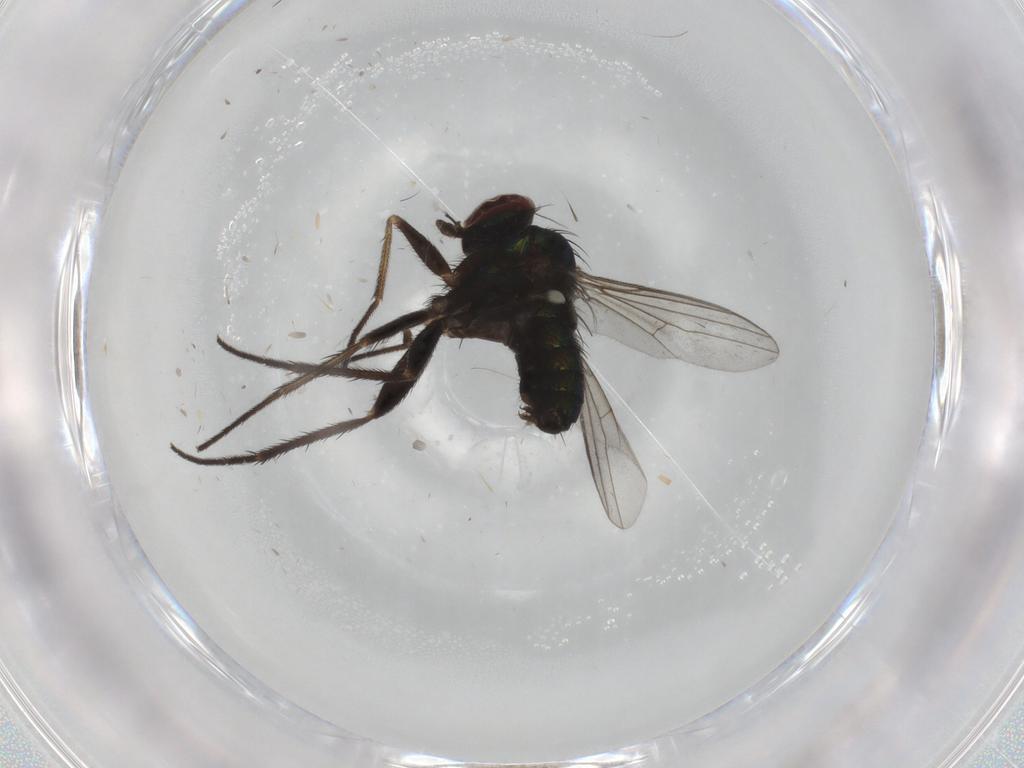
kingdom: Animalia
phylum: Arthropoda
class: Insecta
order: Diptera
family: Dolichopodidae
